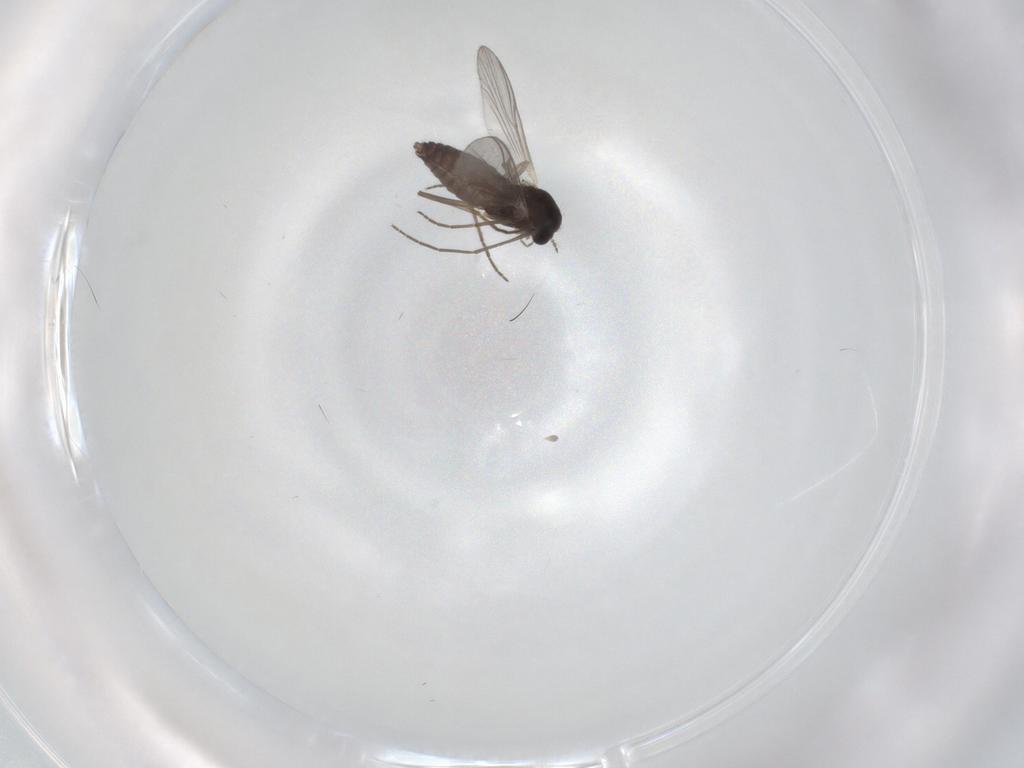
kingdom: Animalia
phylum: Arthropoda
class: Insecta
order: Diptera
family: Chironomidae
